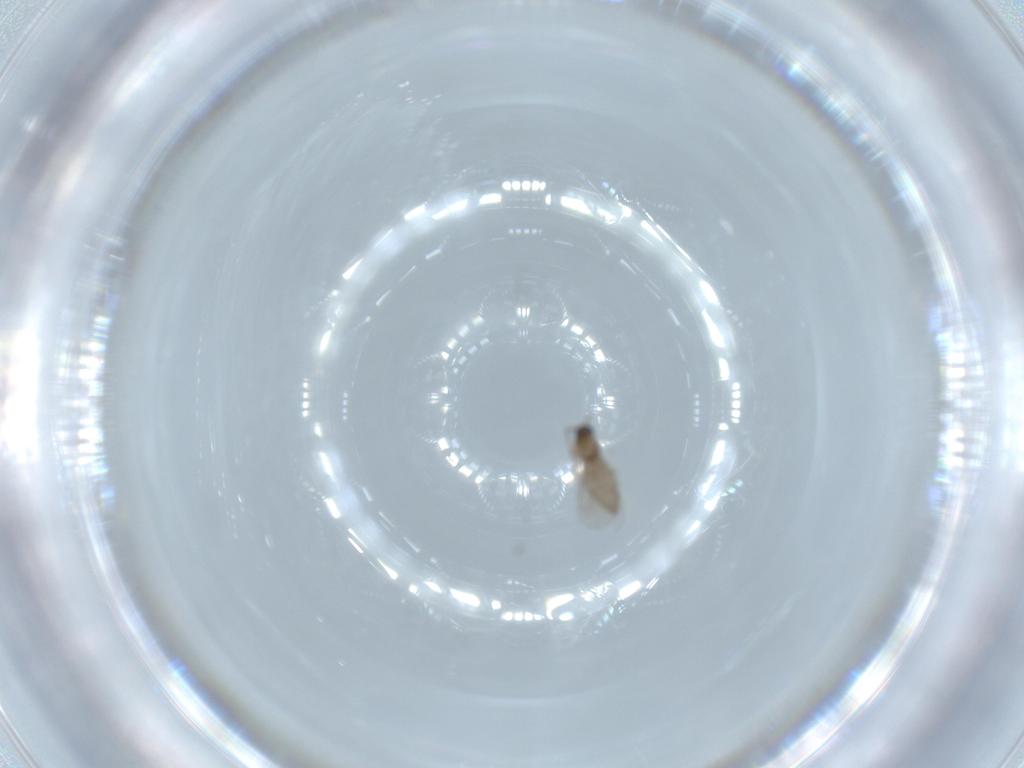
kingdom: Animalia
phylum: Arthropoda
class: Insecta
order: Diptera
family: Cecidomyiidae
